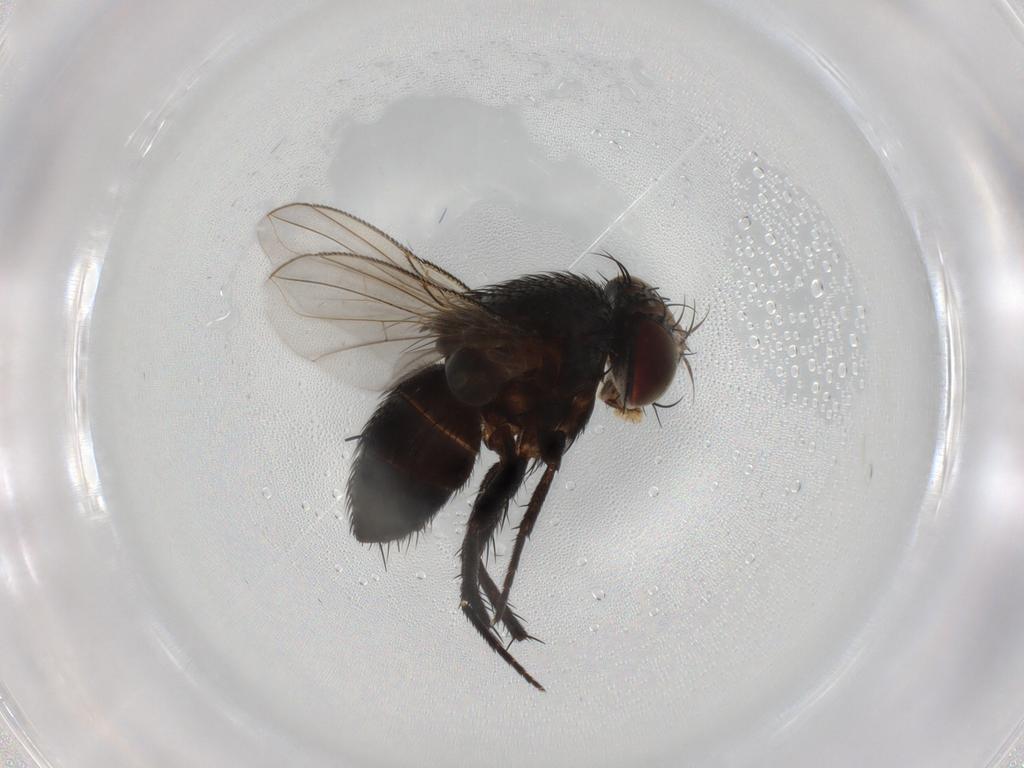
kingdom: Animalia
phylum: Arthropoda
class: Insecta
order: Diptera
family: Tachinidae
